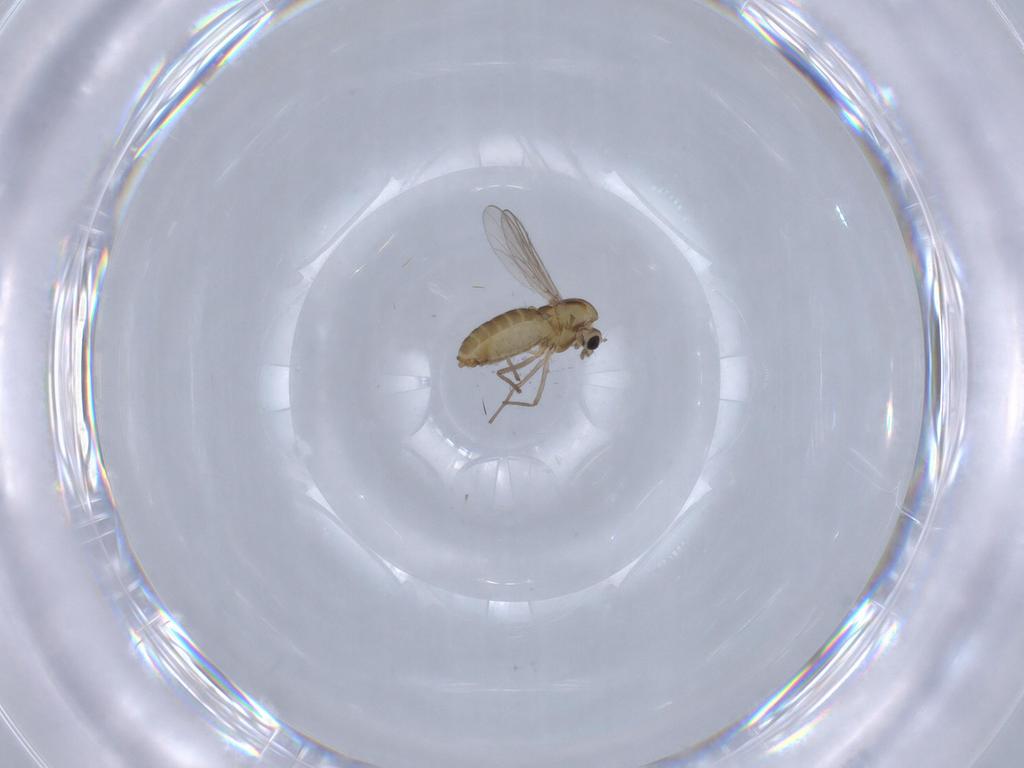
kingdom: Animalia
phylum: Arthropoda
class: Insecta
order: Diptera
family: Chironomidae
